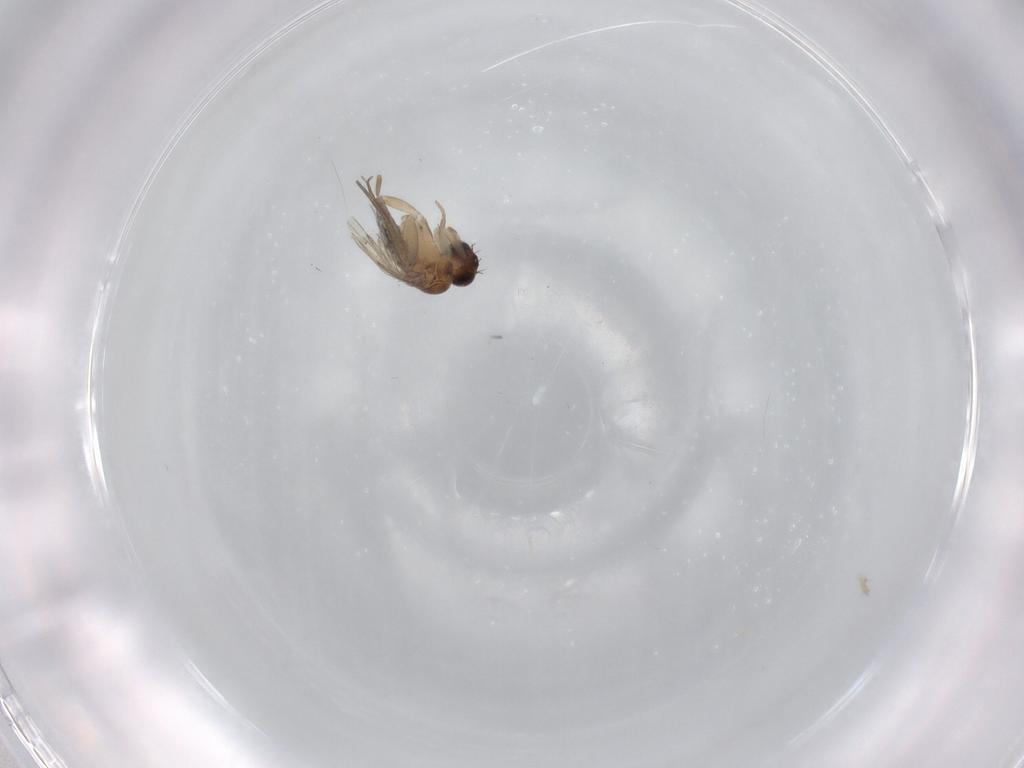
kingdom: Animalia
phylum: Arthropoda
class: Insecta
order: Diptera
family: Phoridae
